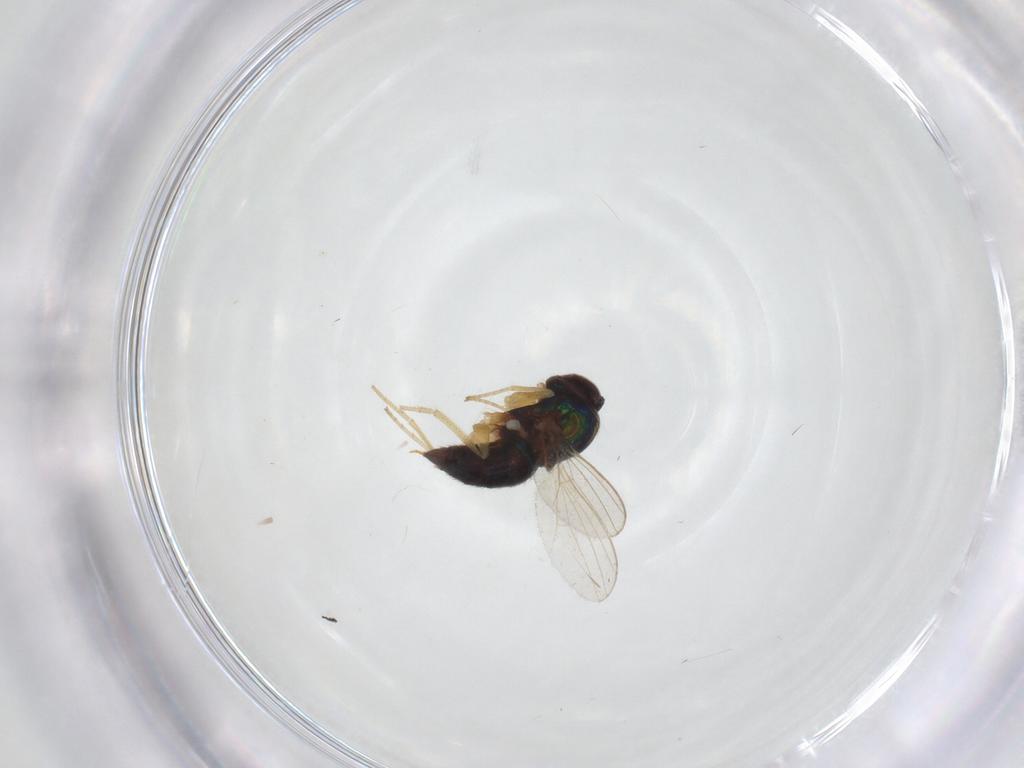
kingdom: Animalia
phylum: Arthropoda
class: Insecta
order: Diptera
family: Dolichopodidae
